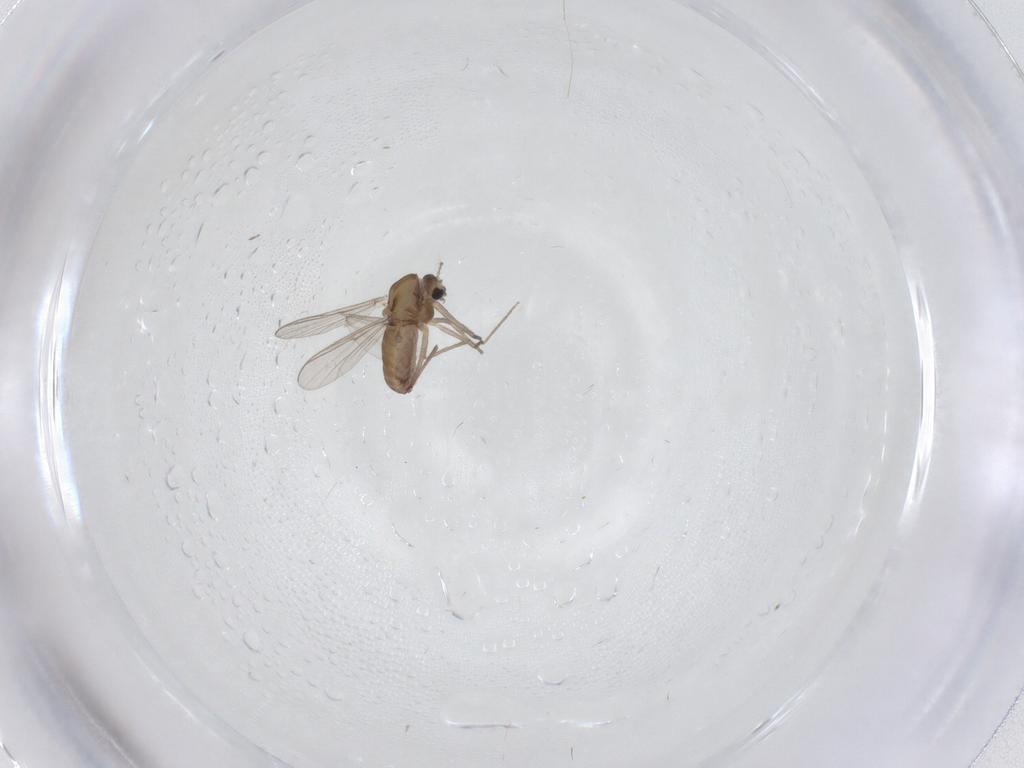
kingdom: Animalia
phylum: Arthropoda
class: Insecta
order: Diptera
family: Chironomidae
